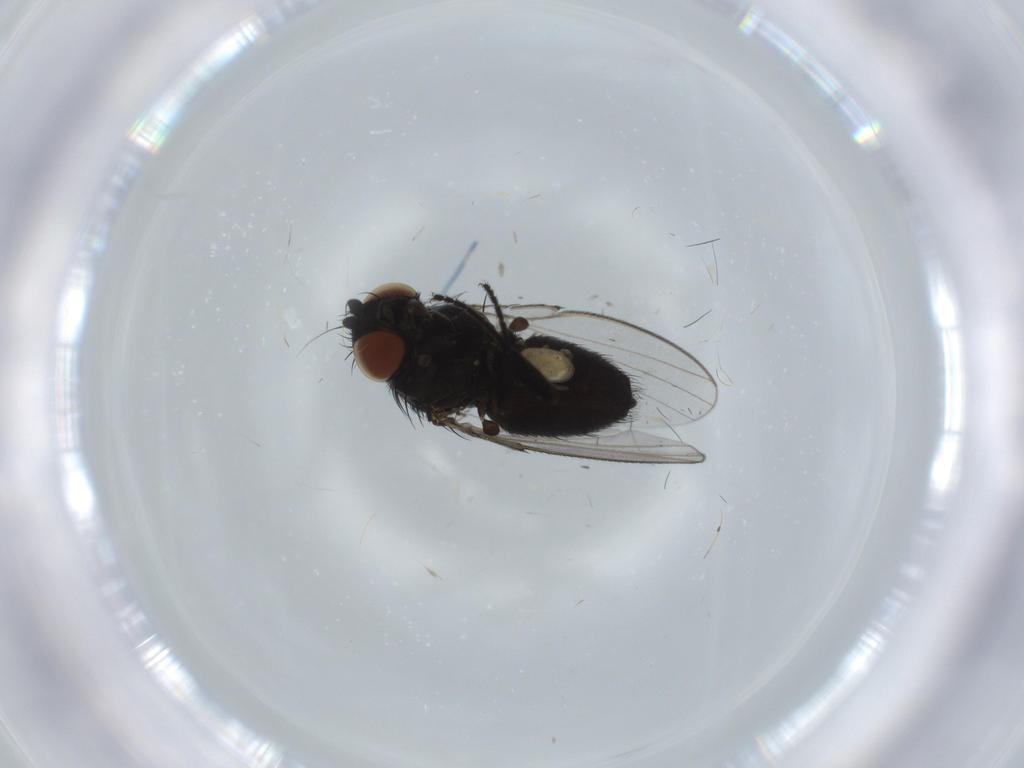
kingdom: Animalia
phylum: Arthropoda
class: Insecta
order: Diptera
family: Milichiidae
